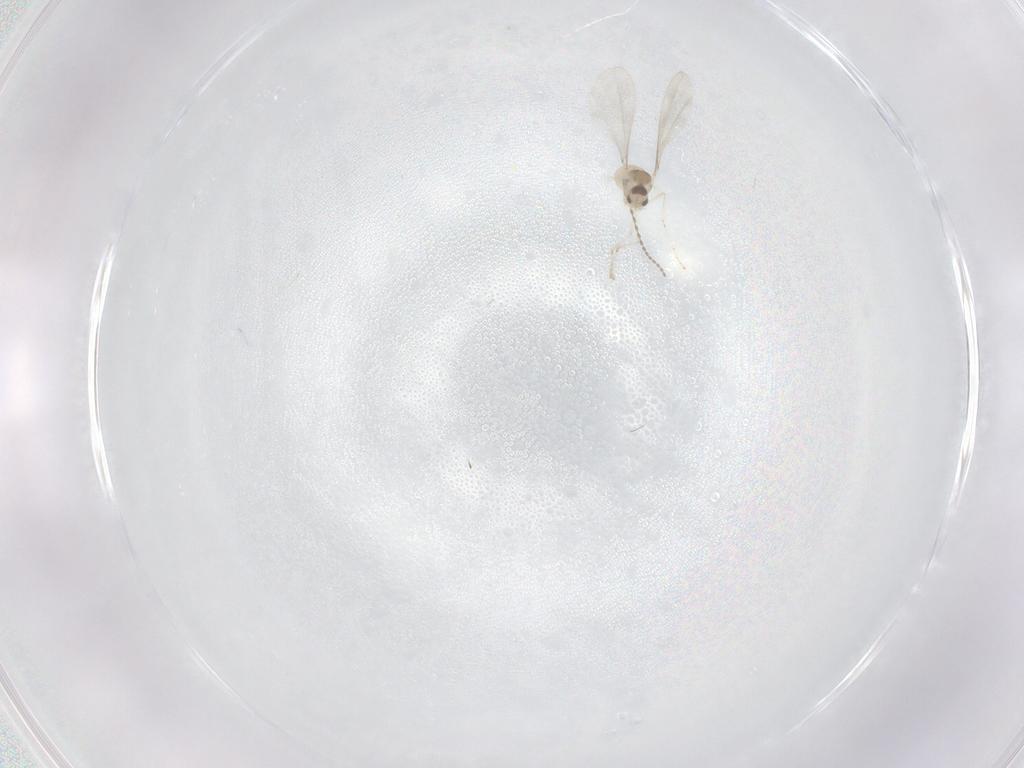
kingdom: Animalia
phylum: Arthropoda
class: Insecta
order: Diptera
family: Cecidomyiidae
